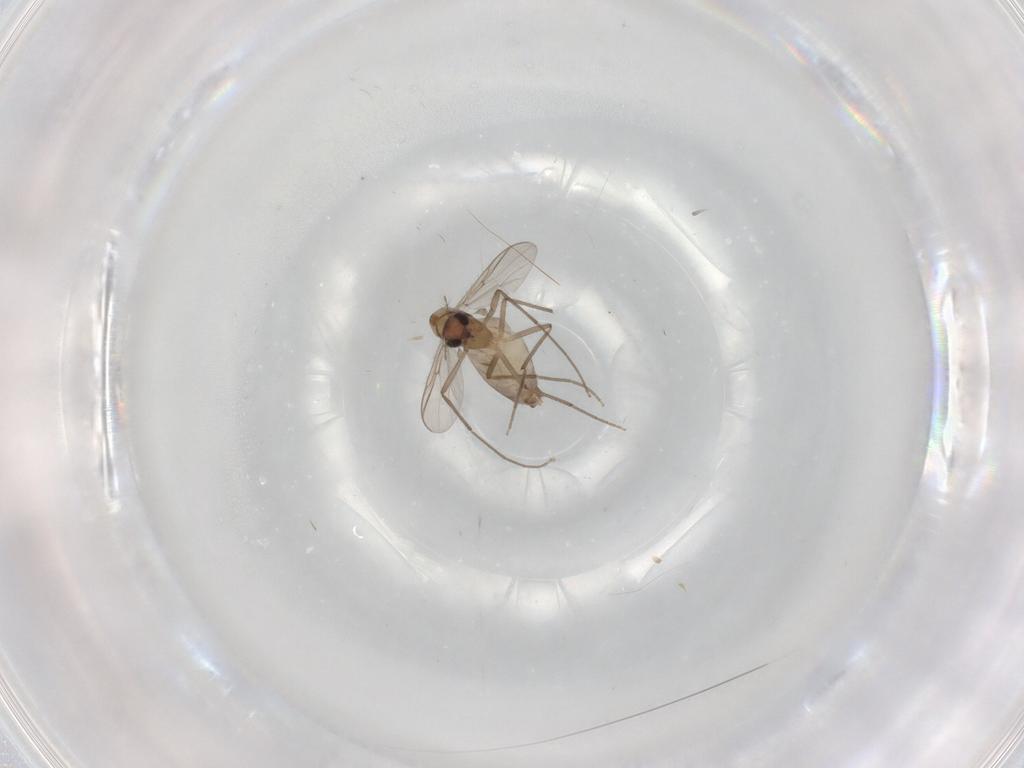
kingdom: Animalia
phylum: Arthropoda
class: Insecta
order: Diptera
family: Chironomidae
